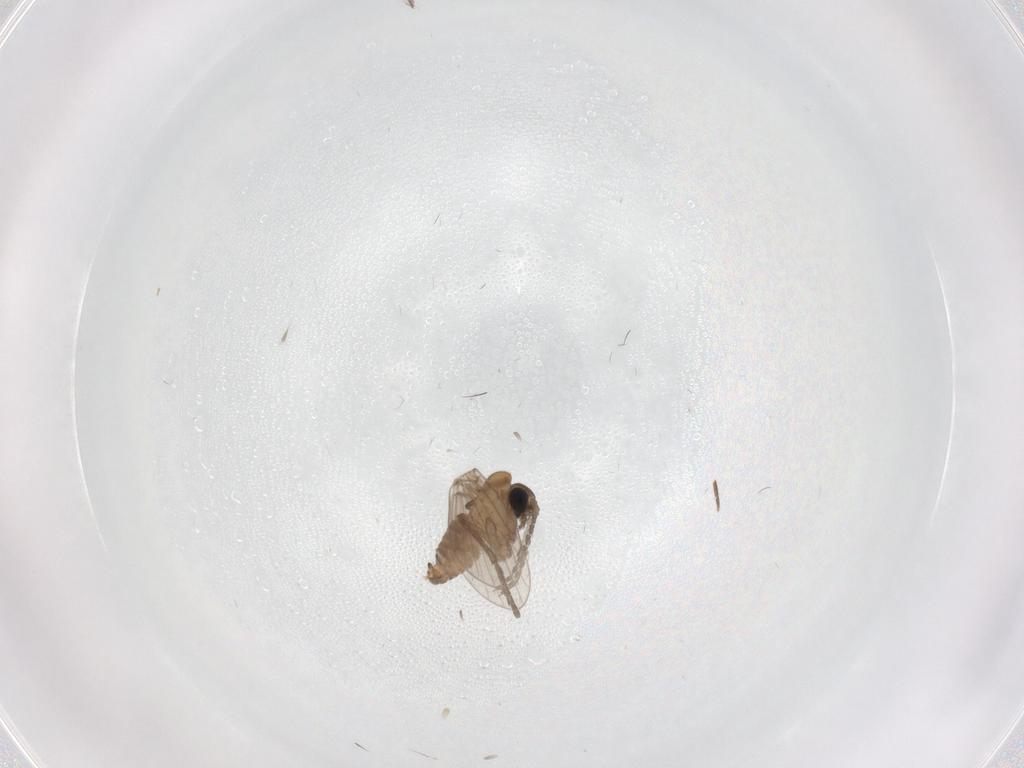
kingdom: Animalia
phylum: Arthropoda
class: Insecta
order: Diptera
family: Psychodidae
